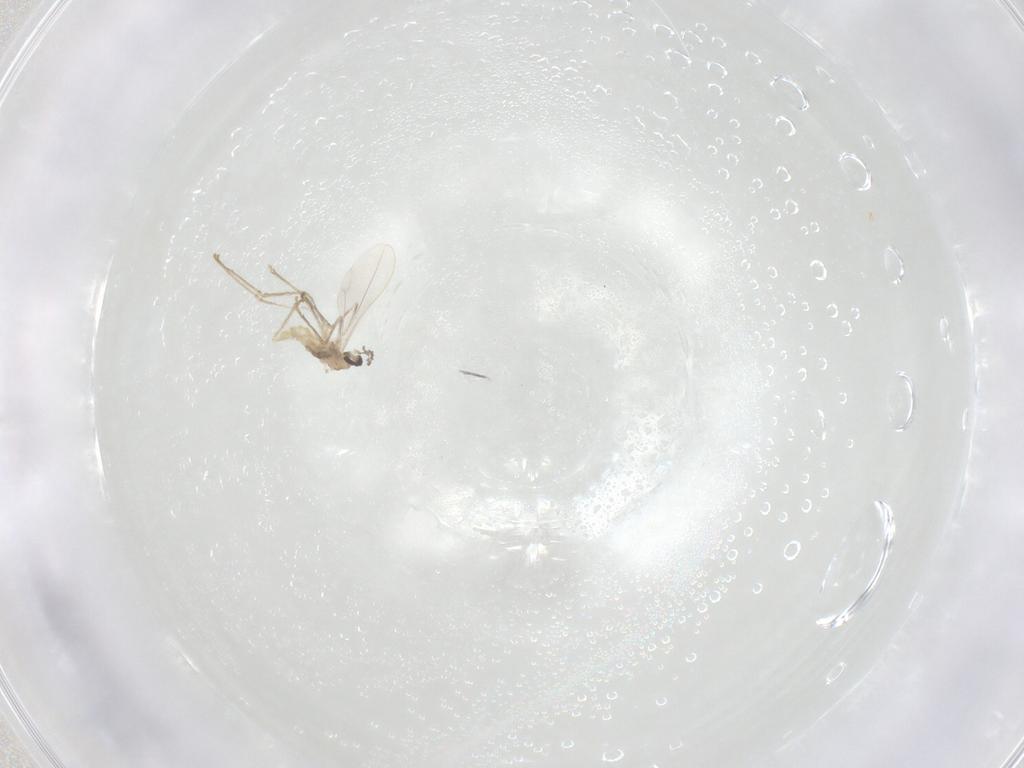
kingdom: Animalia
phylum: Arthropoda
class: Insecta
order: Diptera
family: Cecidomyiidae
